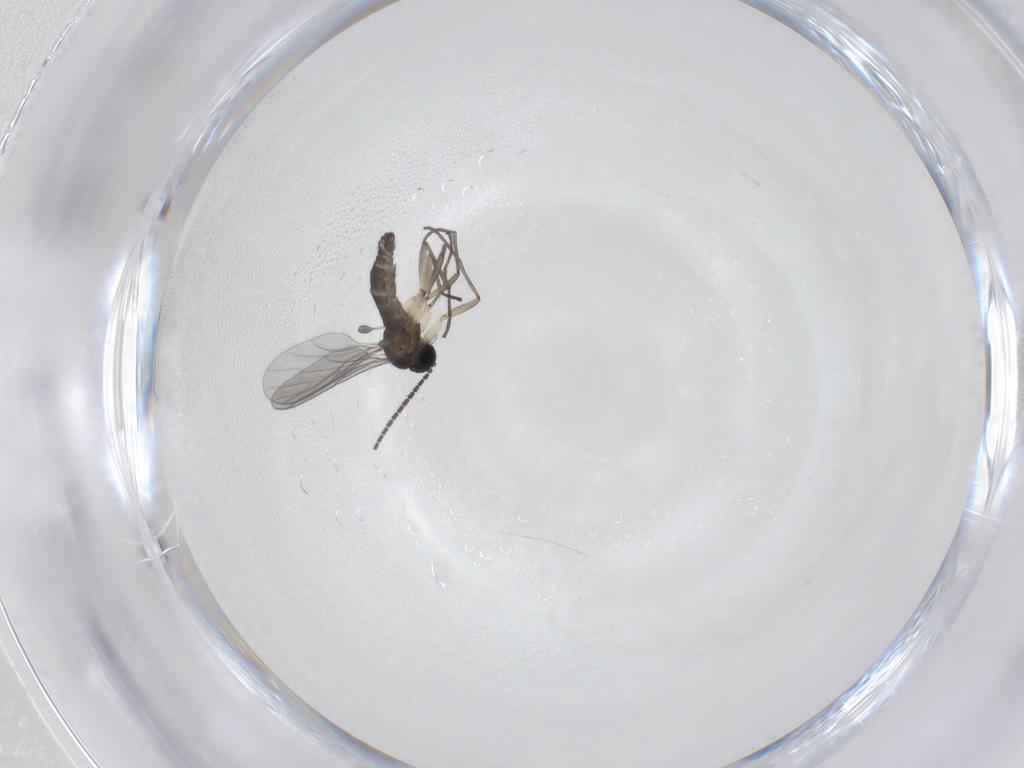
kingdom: Animalia
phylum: Arthropoda
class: Insecta
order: Diptera
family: Sciaridae
